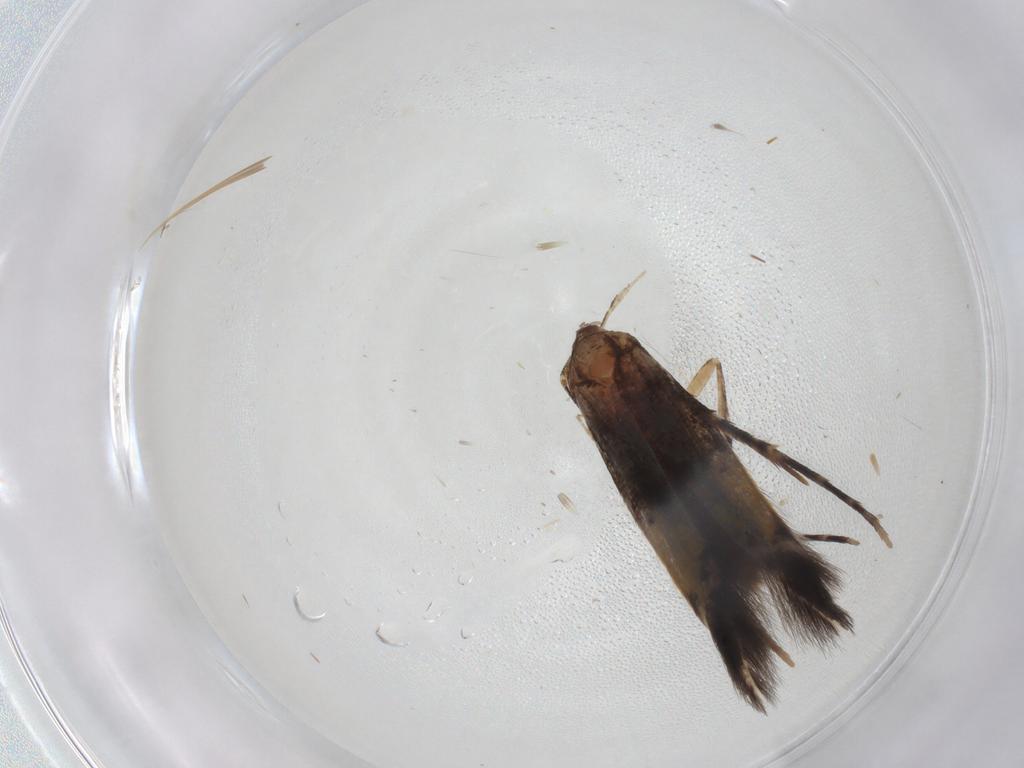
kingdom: Animalia
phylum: Arthropoda
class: Insecta
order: Lepidoptera
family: Cosmopterigidae
